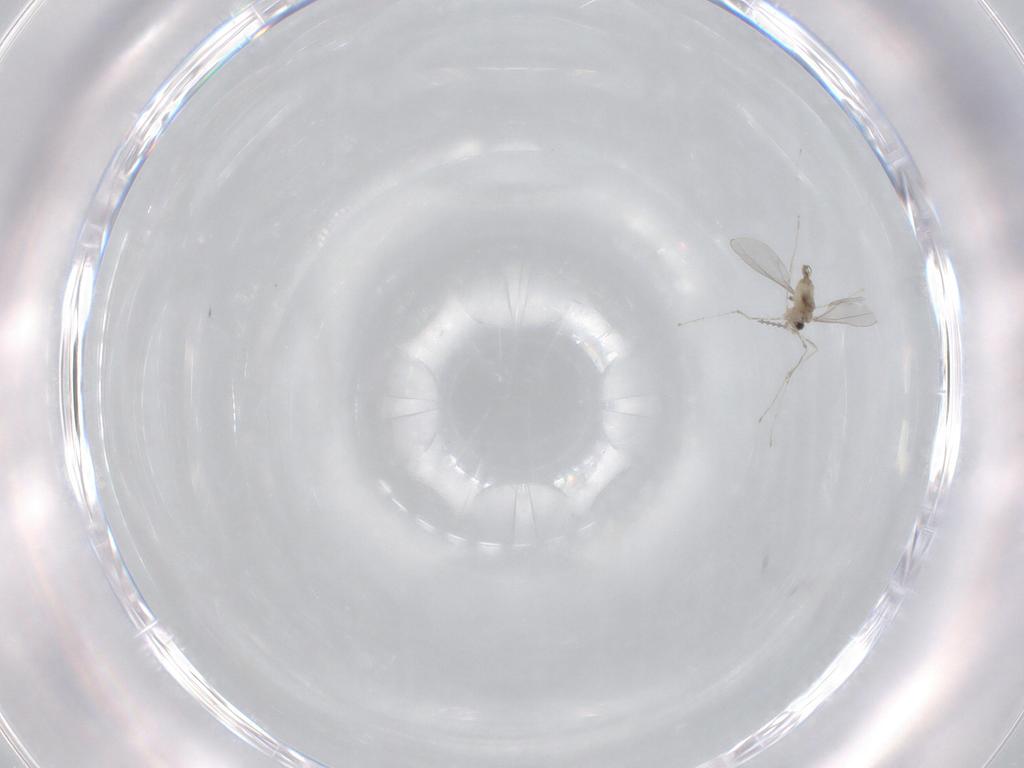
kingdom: Animalia
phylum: Arthropoda
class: Insecta
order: Diptera
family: Cecidomyiidae
